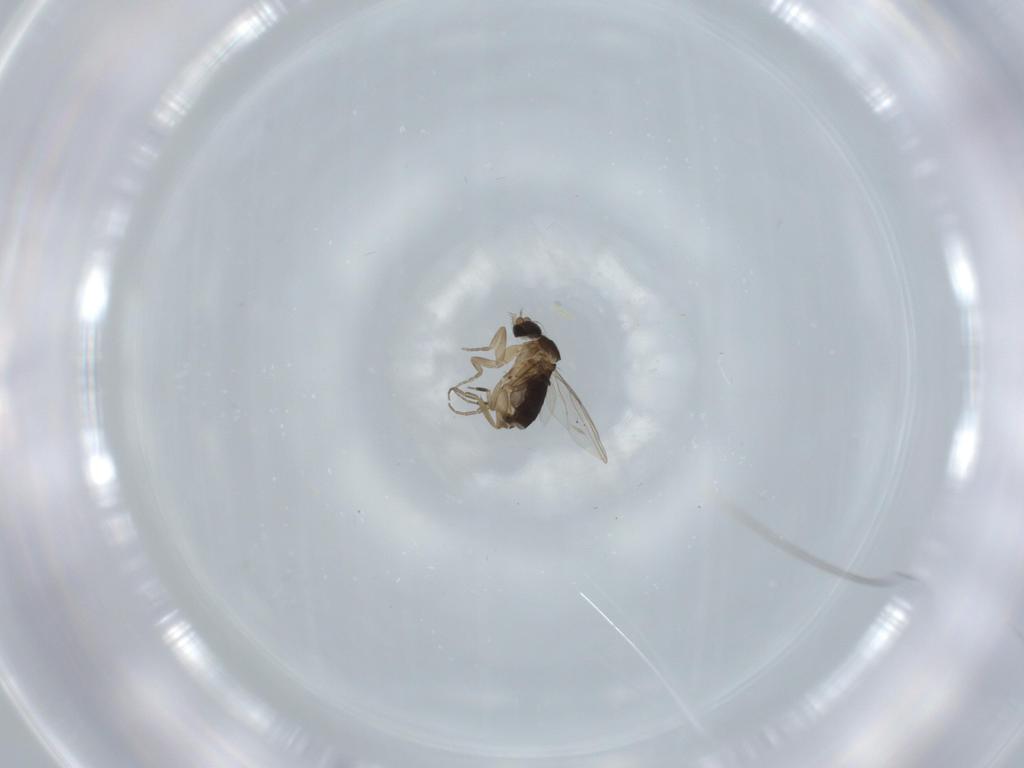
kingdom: Animalia
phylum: Arthropoda
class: Insecta
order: Diptera
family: Phoridae
